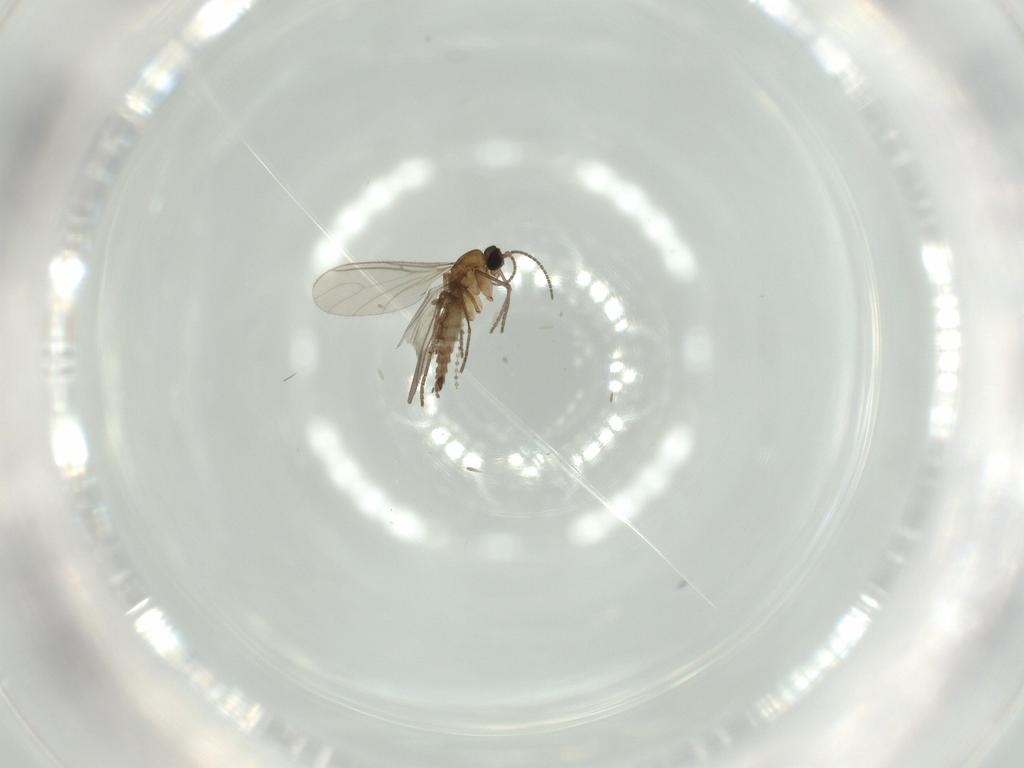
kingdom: Animalia
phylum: Arthropoda
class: Insecta
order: Diptera
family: Sciaridae
